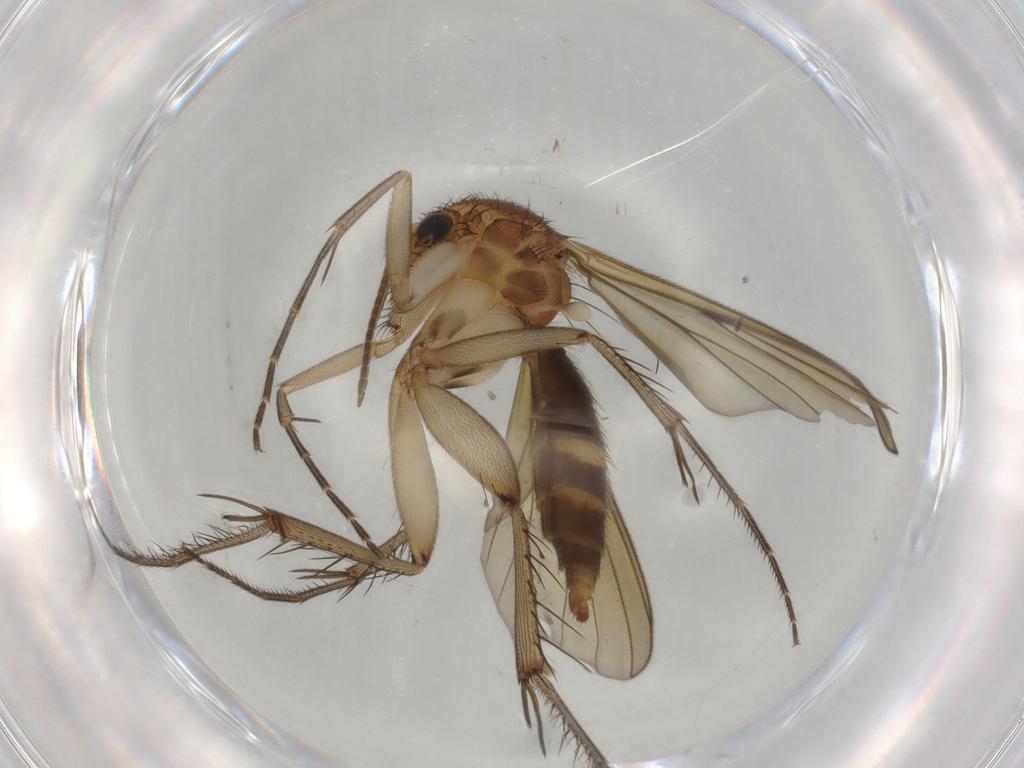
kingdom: Animalia
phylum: Arthropoda
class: Insecta
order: Diptera
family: Mycetophilidae
